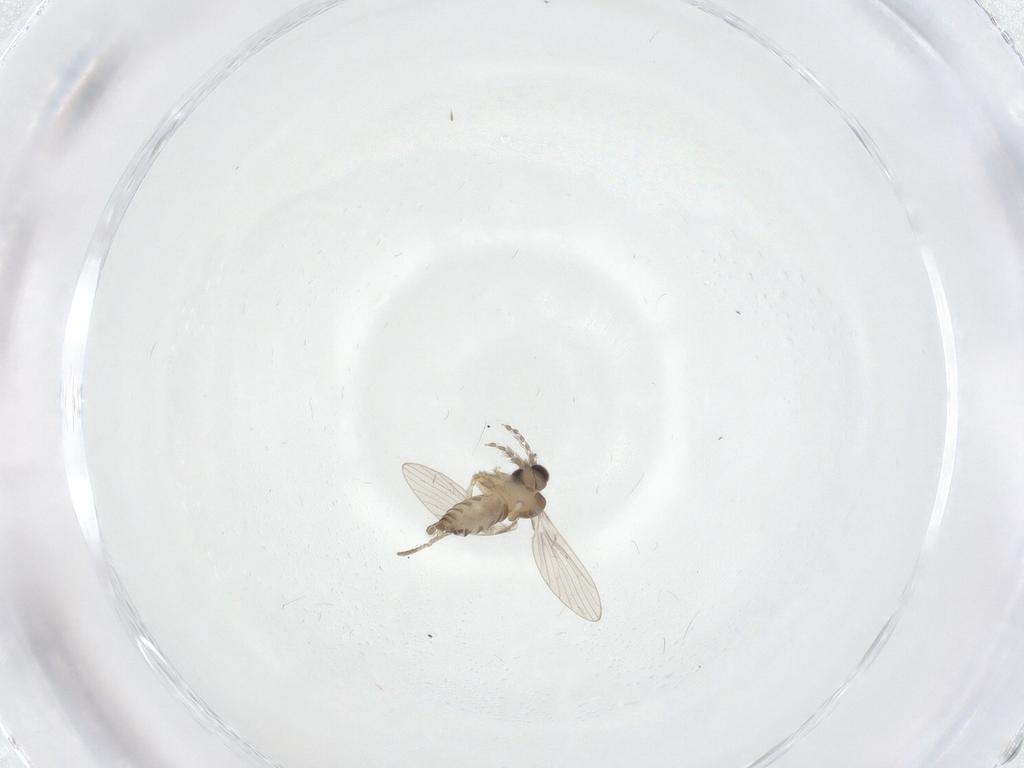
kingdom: Animalia
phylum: Arthropoda
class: Insecta
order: Diptera
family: Psychodidae
